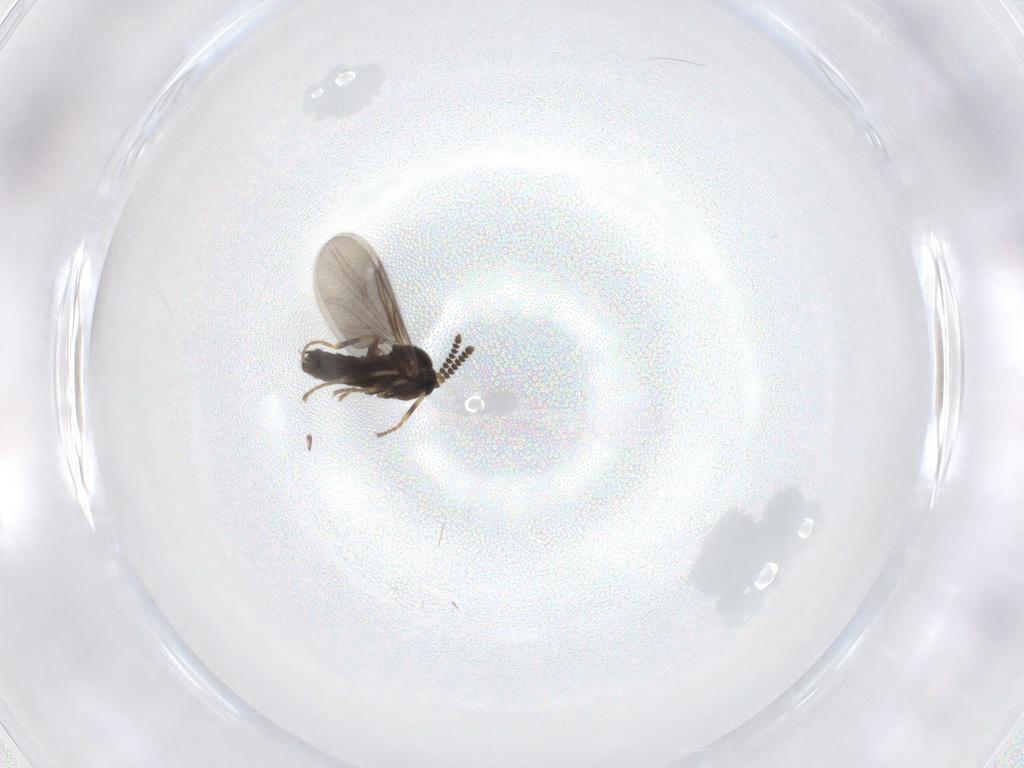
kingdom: Animalia
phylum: Arthropoda
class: Insecta
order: Diptera
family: Scatopsidae
